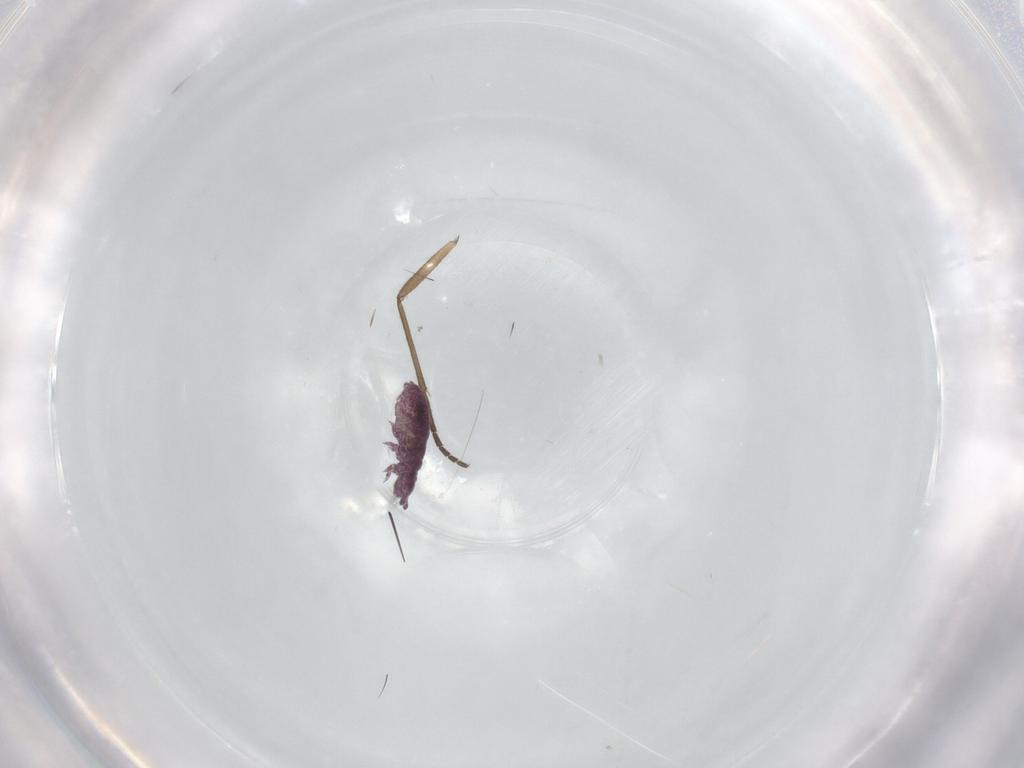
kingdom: Animalia
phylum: Arthropoda
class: Collembola
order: Poduromorpha
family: Brachystomellidae
